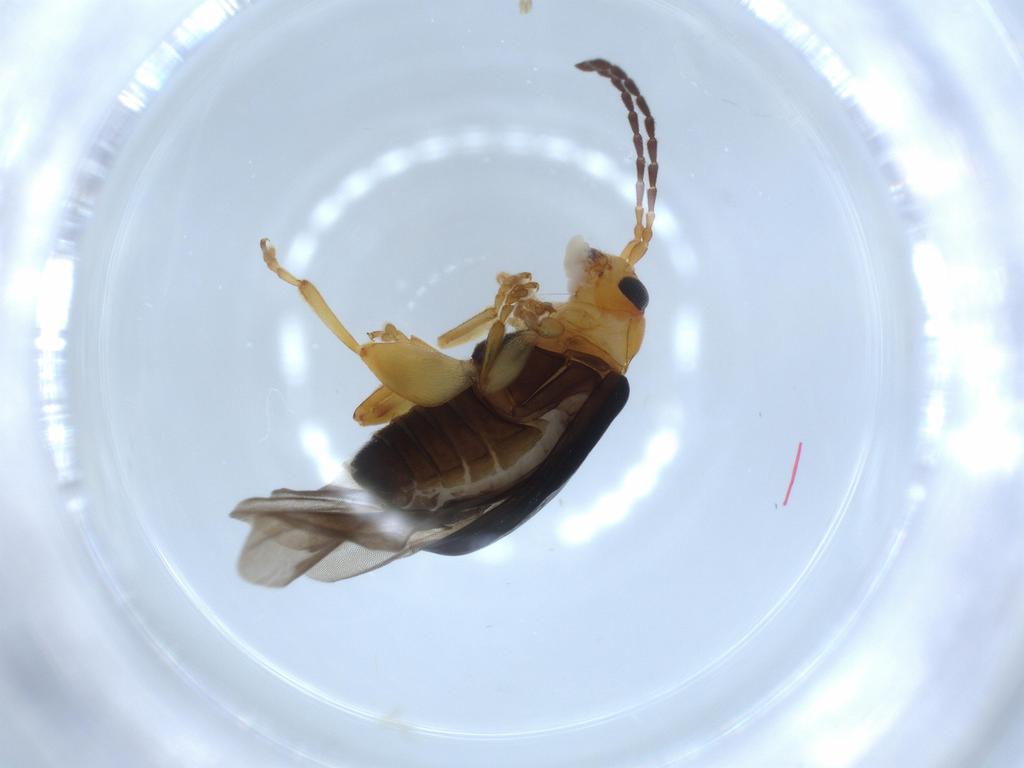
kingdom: Animalia
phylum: Arthropoda
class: Insecta
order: Coleoptera
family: Chrysomelidae
